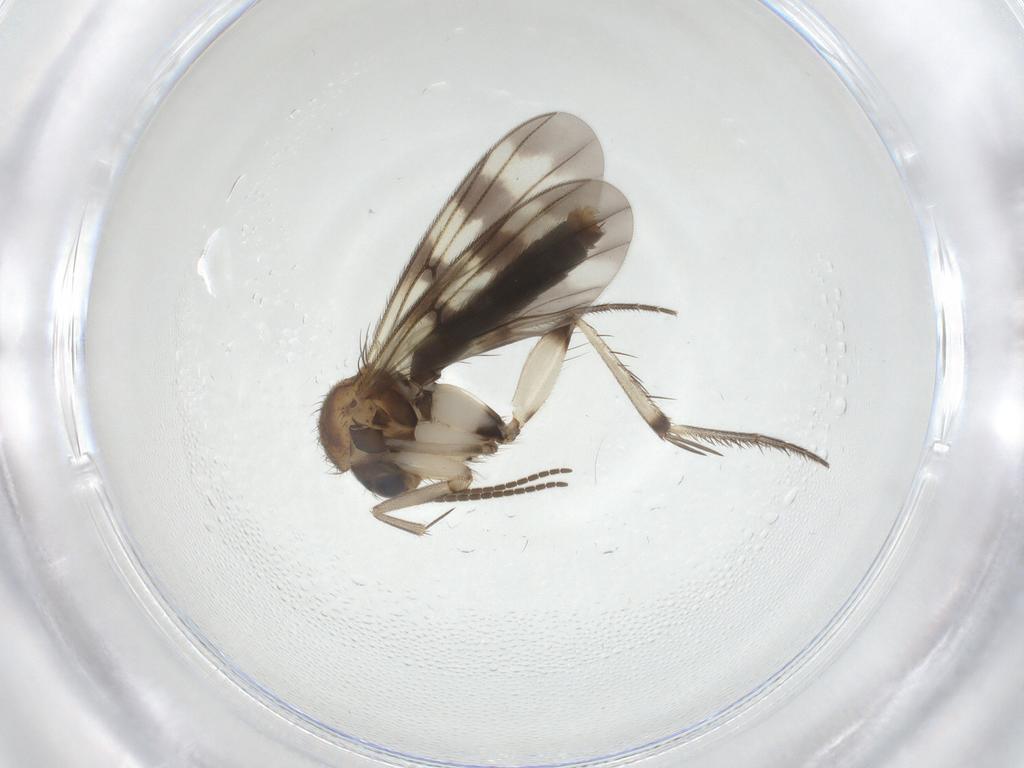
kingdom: Animalia
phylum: Arthropoda
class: Insecta
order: Diptera
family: Mycetophilidae
